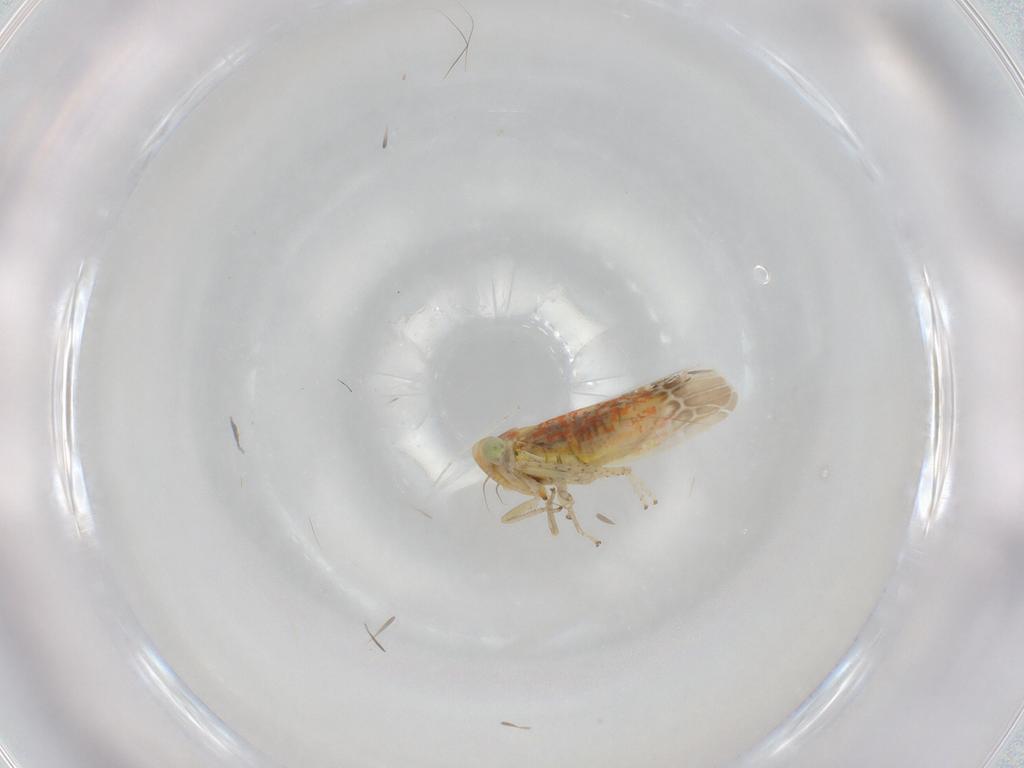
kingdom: Animalia
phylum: Arthropoda
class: Insecta
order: Hemiptera
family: Cicadellidae
